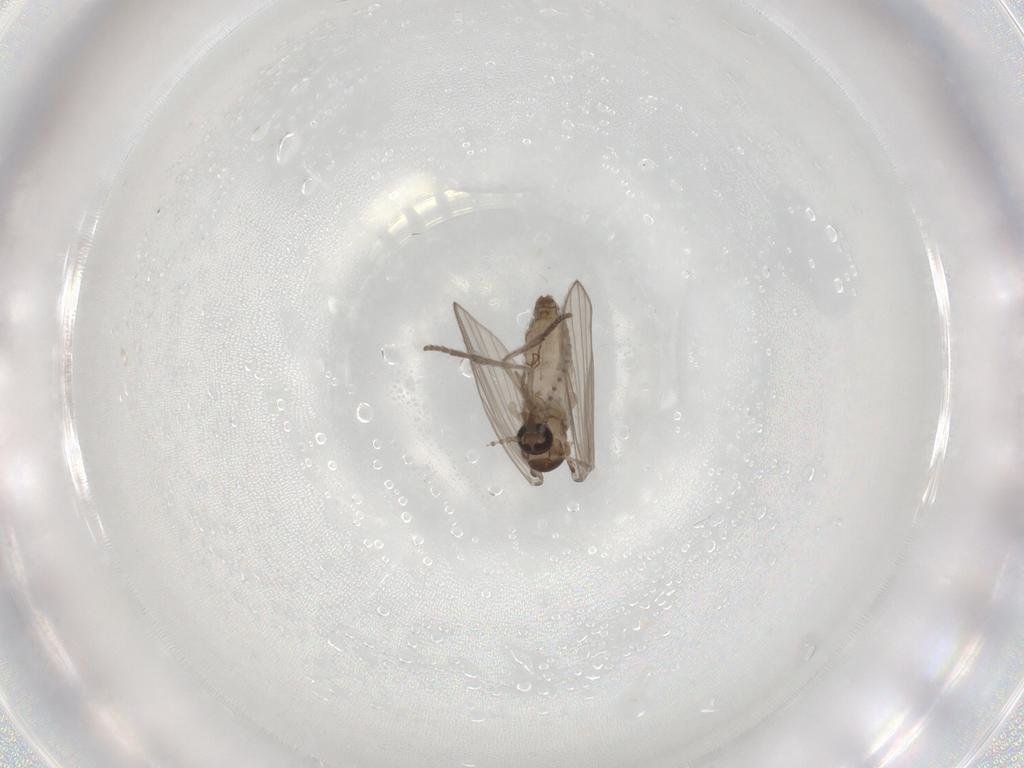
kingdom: Animalia
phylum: Arthropoda
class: Insecta
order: Diptera
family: Psychodidae
